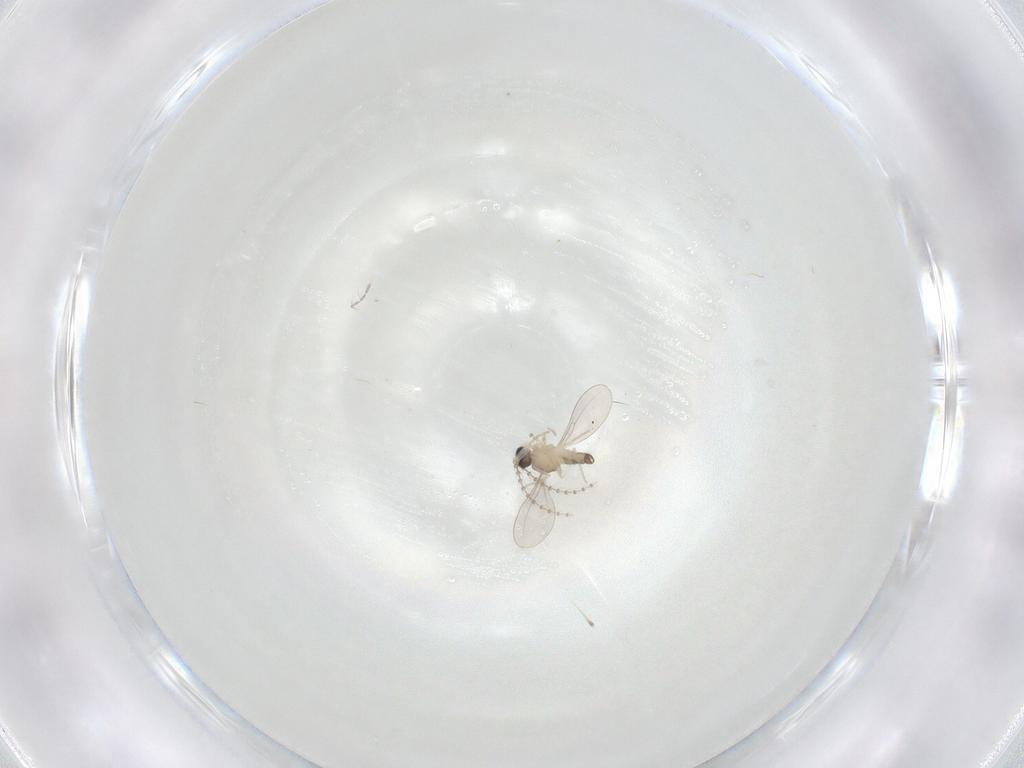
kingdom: Animalia
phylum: Arthropoda
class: Insecta
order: Diptera
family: Cecidomyiidae
